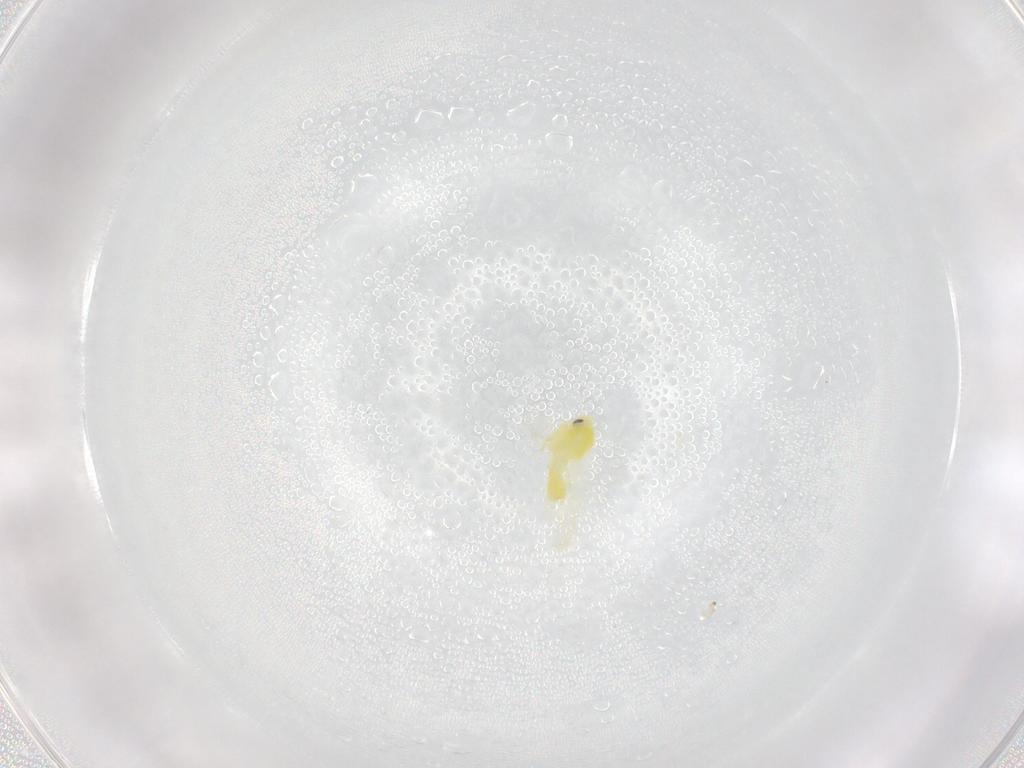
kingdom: Animalia
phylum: Arthropoda
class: Insecta
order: Hemiptera
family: Aleyrodidae
